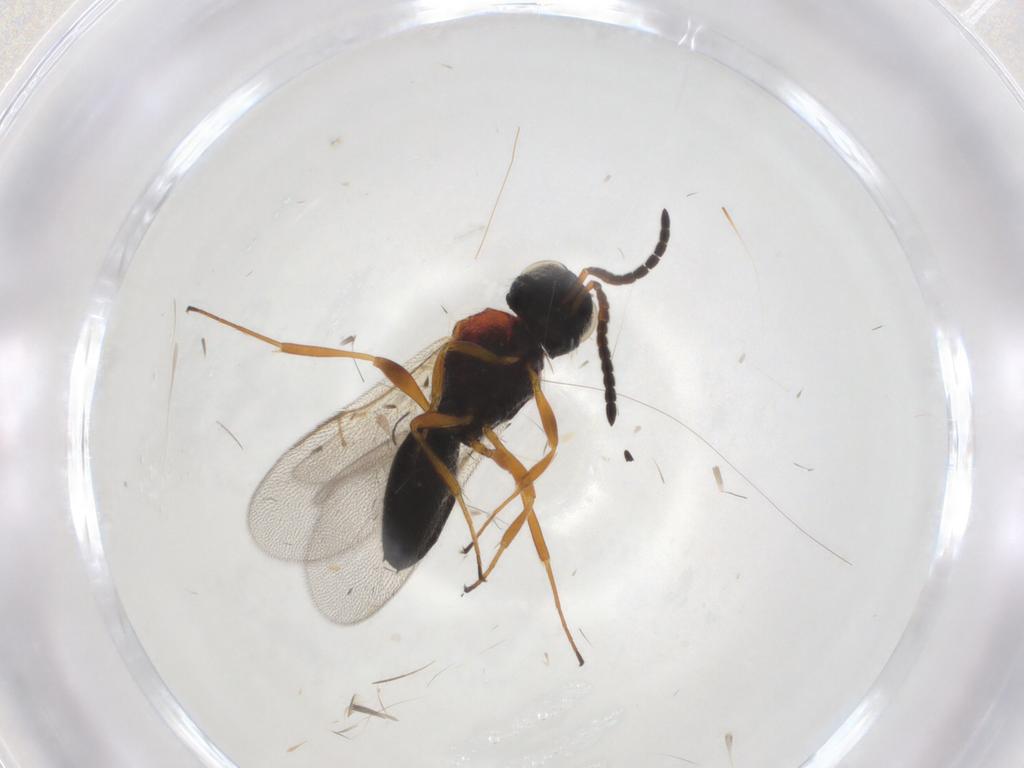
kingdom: Animalia
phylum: Arthropoda
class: Insecta
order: Hymenoptera
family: Scelionidae
